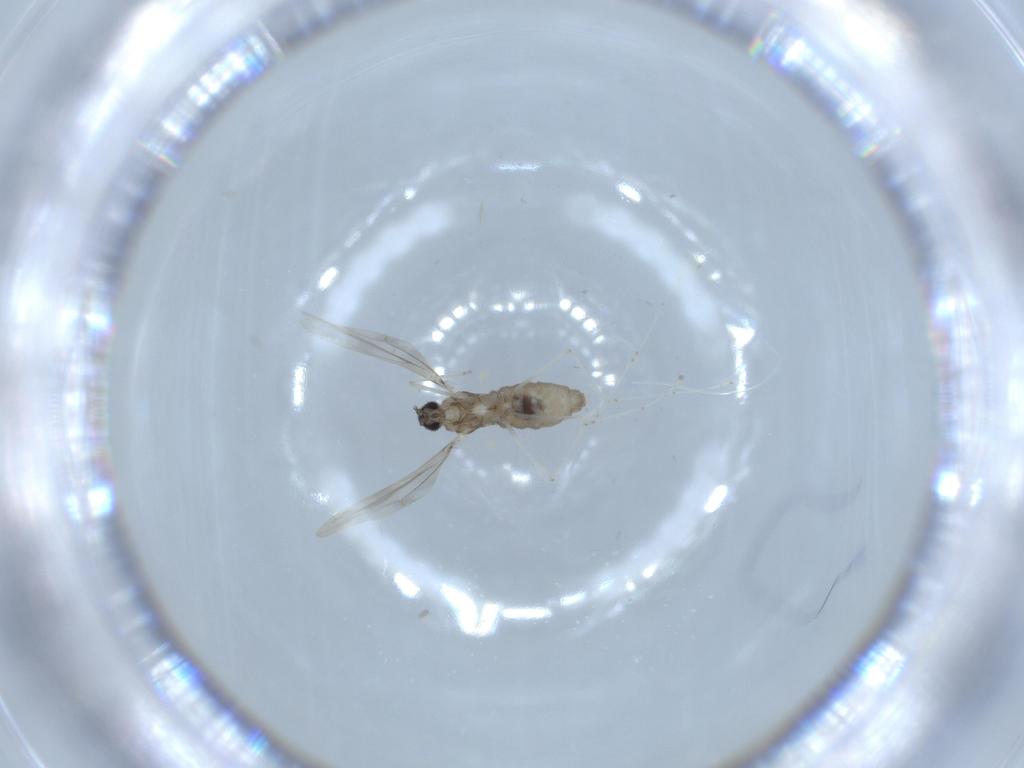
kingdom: Animalia
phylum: Arthropoda
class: Insecta
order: Diptera
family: Cecidomyiidae
